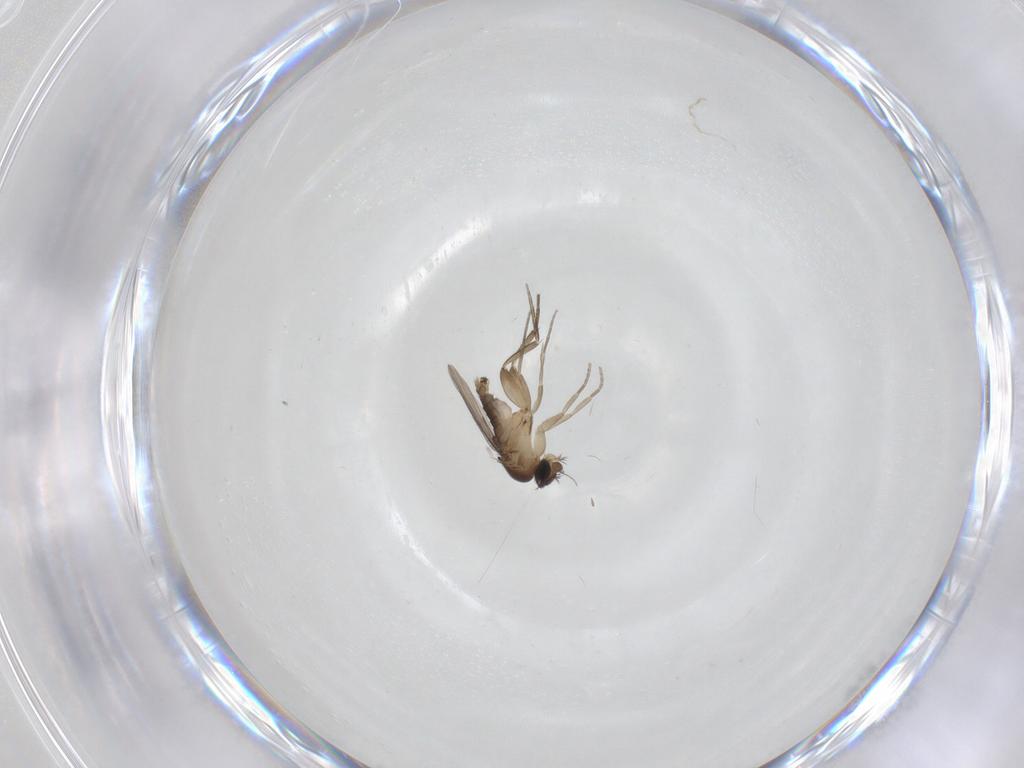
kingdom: Animalia
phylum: Arthropoda
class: Insecta
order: Diptera
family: Phoridae
